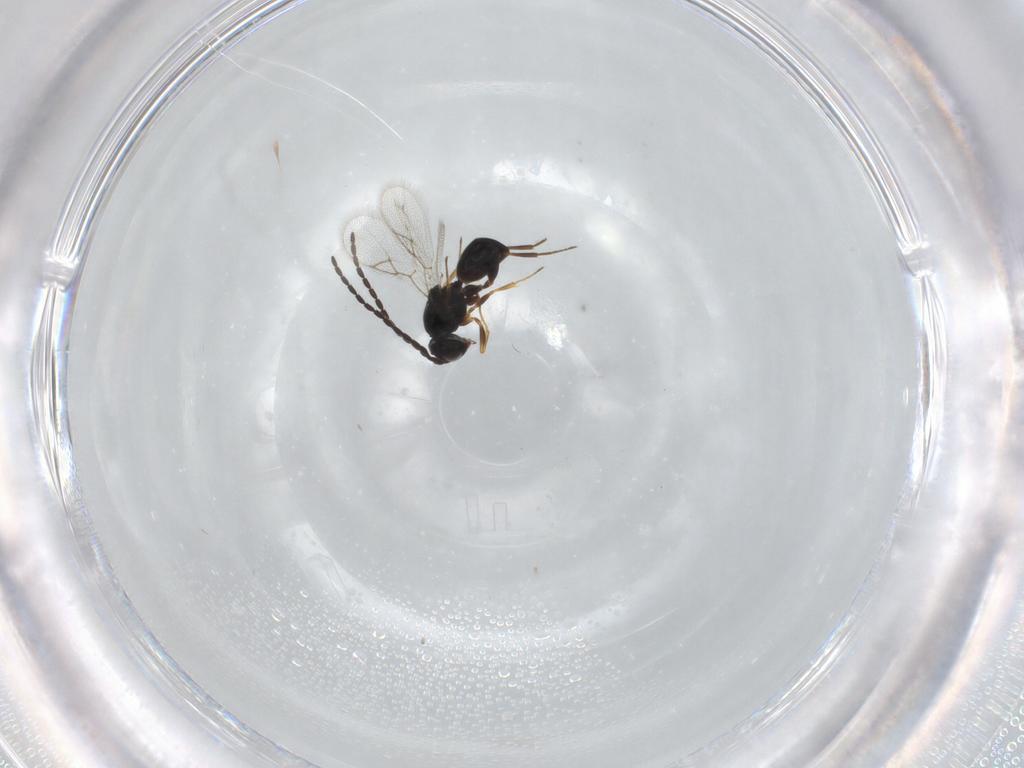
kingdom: Animalia
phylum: Arthropoda
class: Insecta
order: Hymenoptera
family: Figitidae
